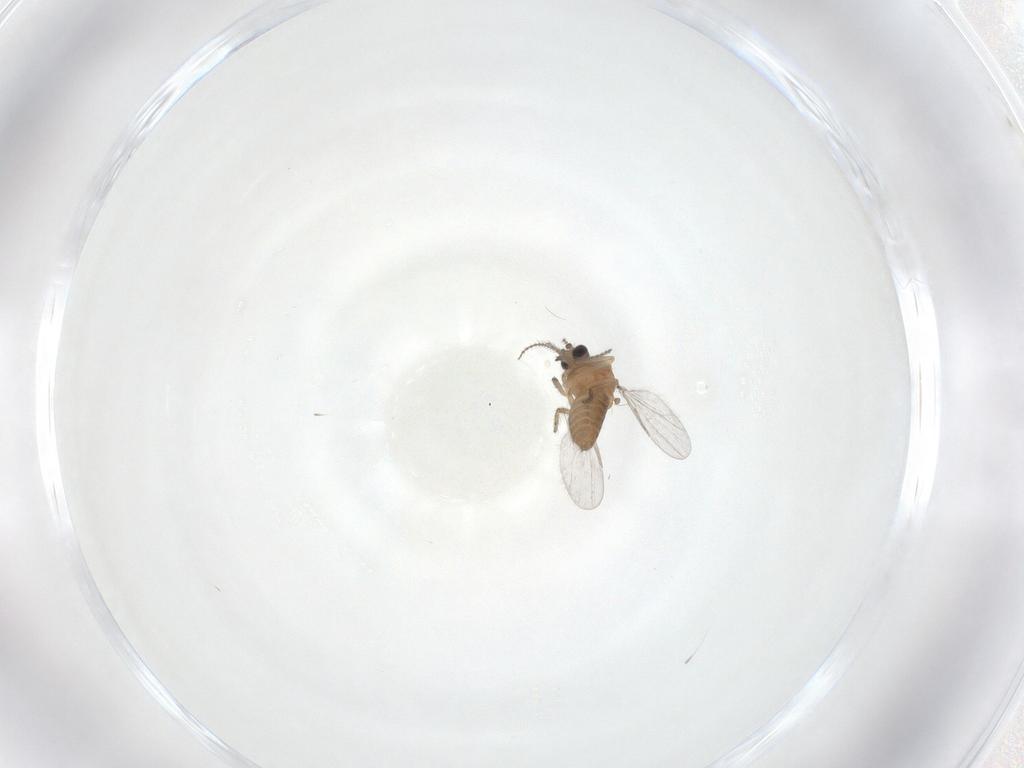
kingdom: Animalia
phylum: Arthropoda
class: Insecta
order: Diptera
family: Ceratopogonidae
